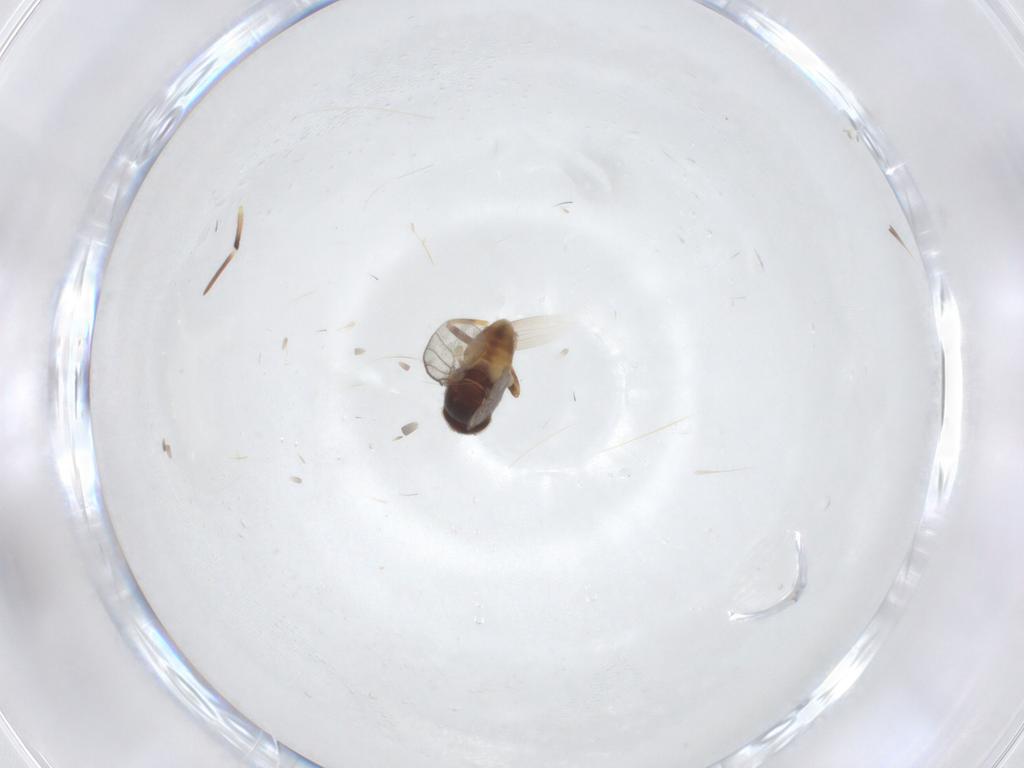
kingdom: Animalia
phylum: Arthropoda
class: Insecta
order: Diptera
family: Chloropidae
